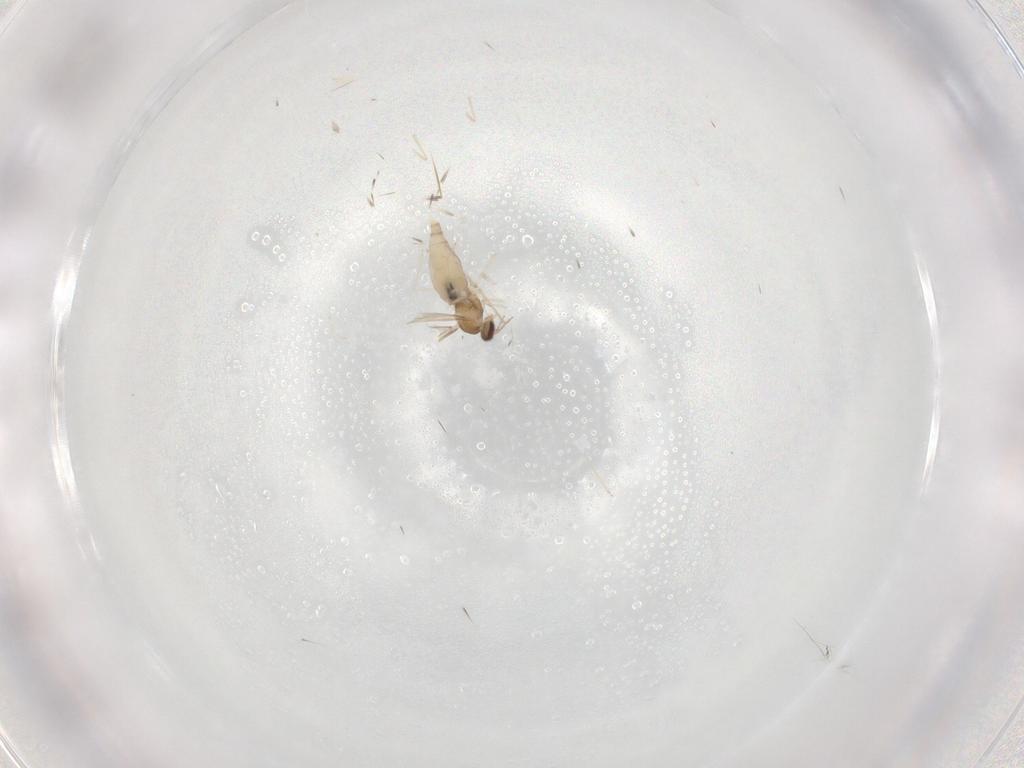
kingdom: Animalia
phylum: Arthropoda
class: Insecta
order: Diptera
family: Cecidomyiidae
